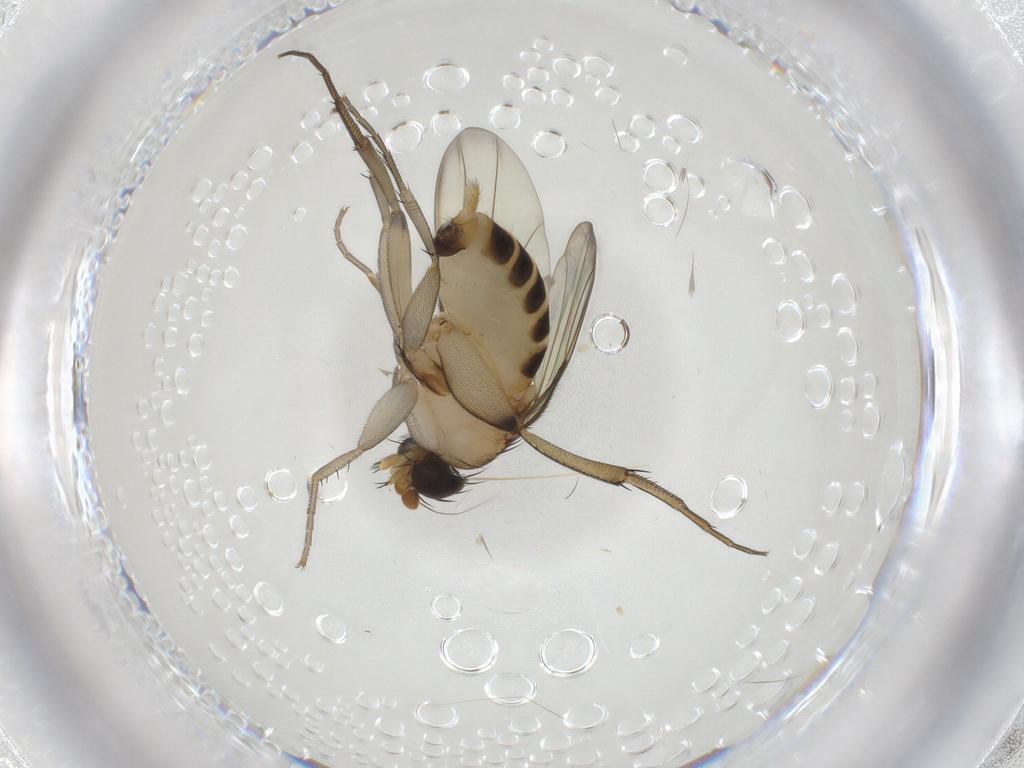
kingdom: Animalia
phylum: Arthropoda
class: Insecta
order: Diptera
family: Phoridae
